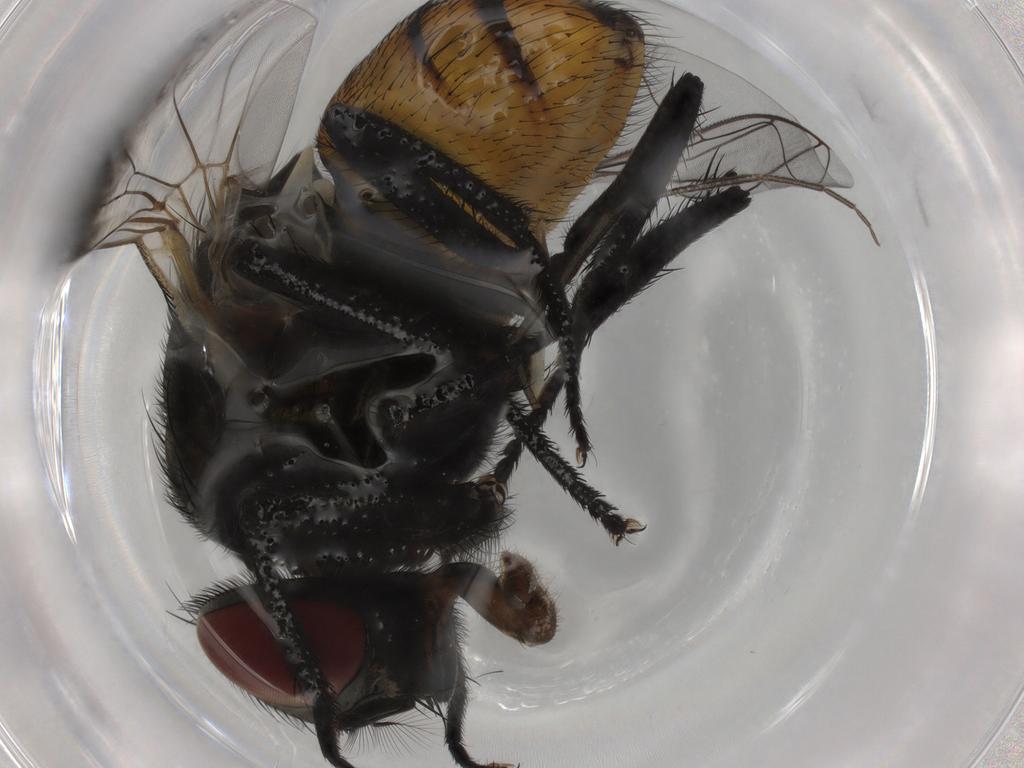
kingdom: Animalia
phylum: Arthropoda
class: Insecta
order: Diptera
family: Chironomidae
